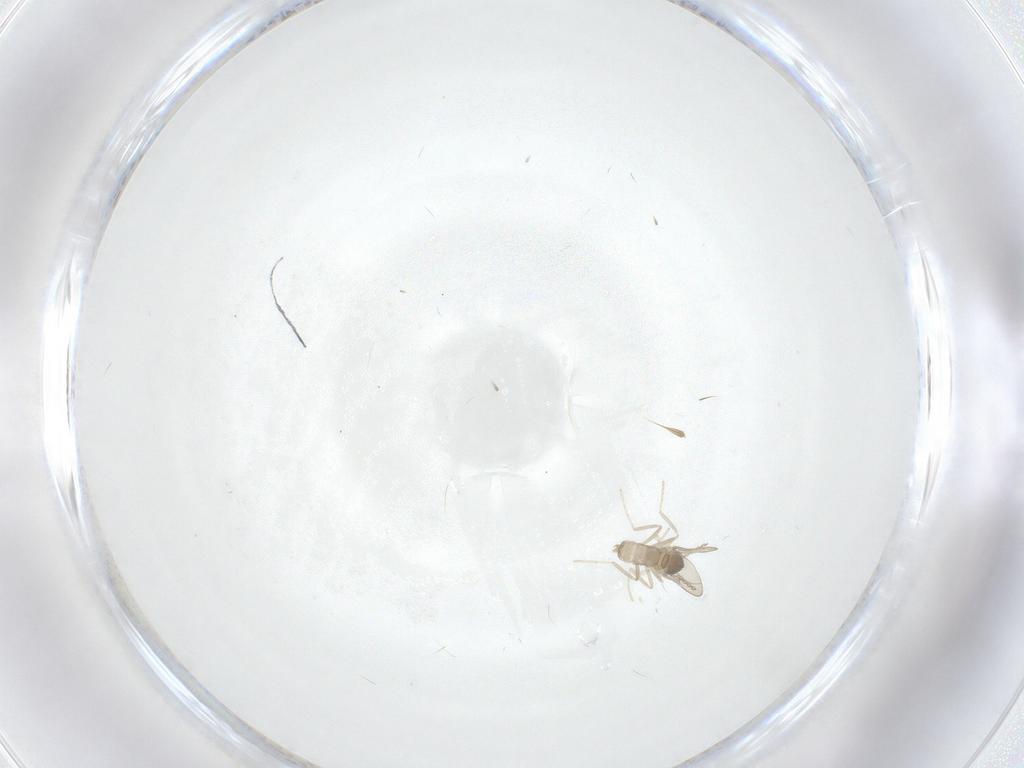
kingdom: Animalia
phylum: Arthropoda
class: Insecta
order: Diptera
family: Cecidomyiidae
